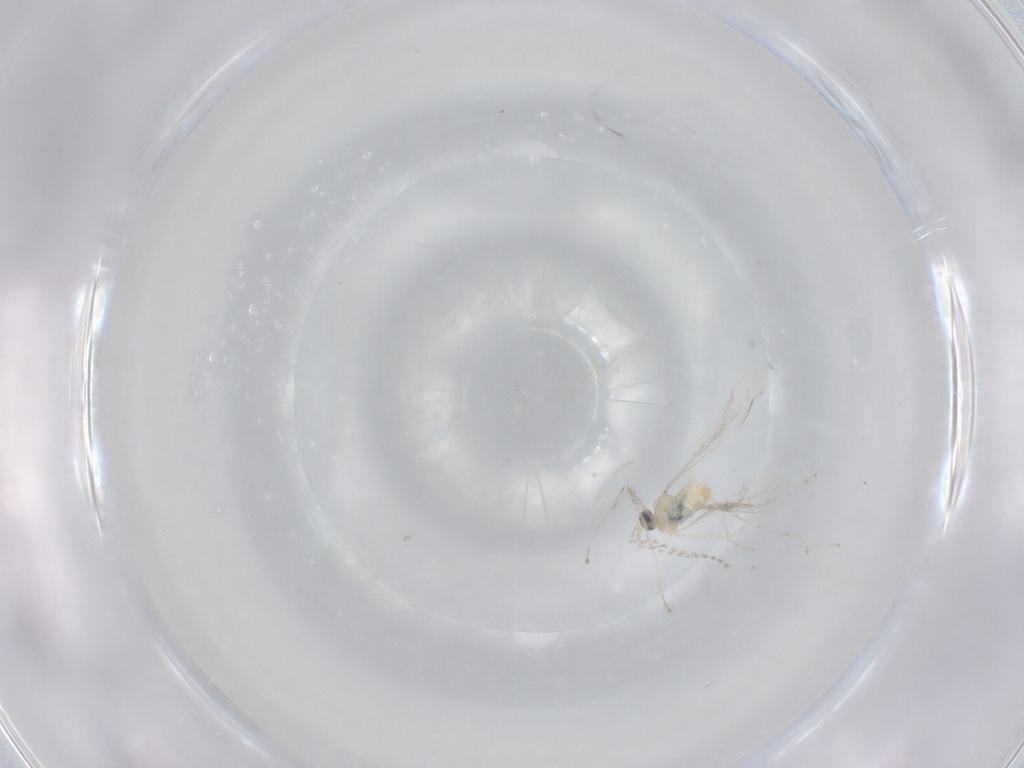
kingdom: Animalia
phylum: Arthropoda
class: Insecta
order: Diptera
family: Cecidomyiidae
